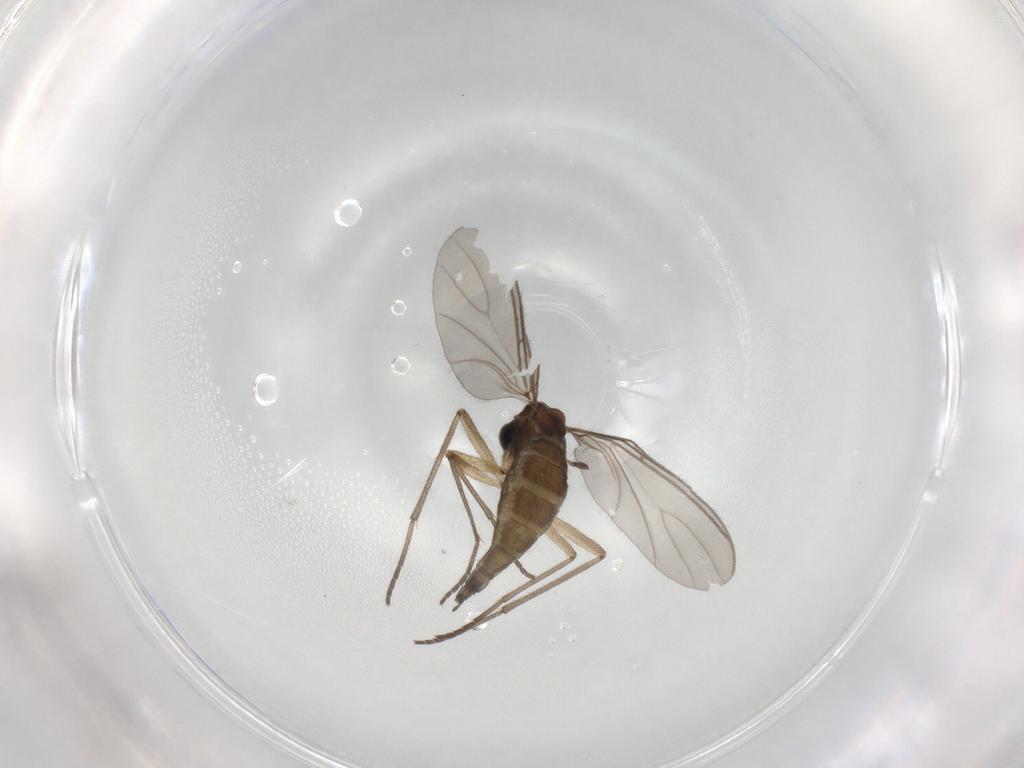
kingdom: Animalia
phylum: Arthropoda
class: Insecta
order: Diptera
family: Sciaridae
